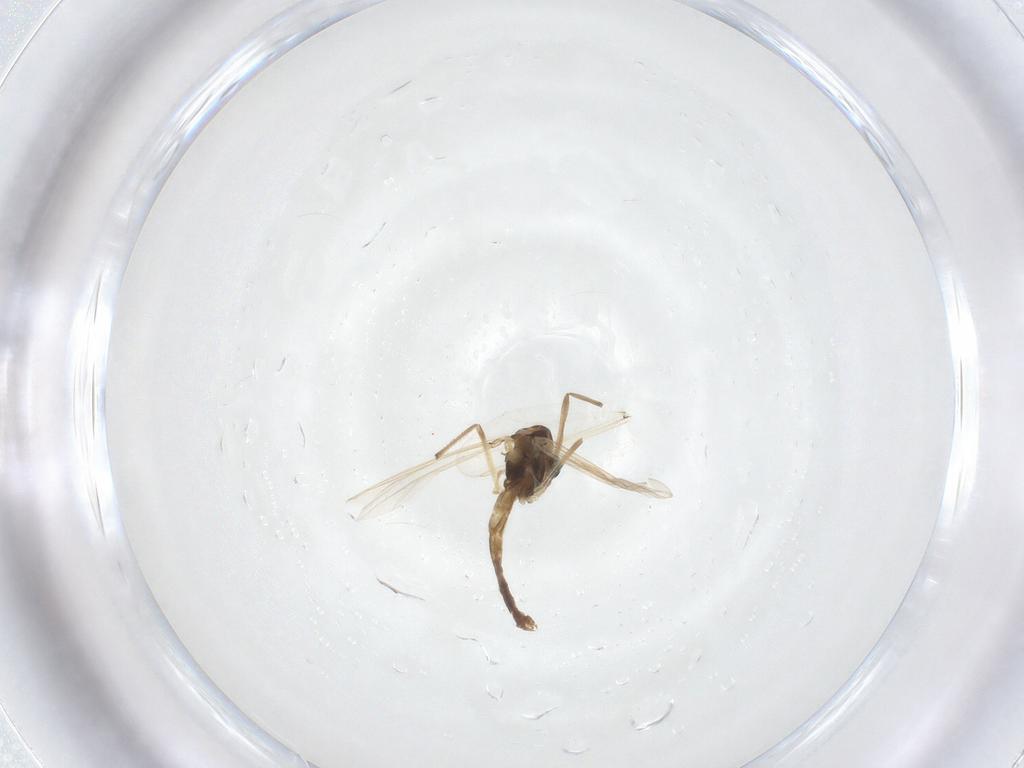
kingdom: Animalia
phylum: Arthropoda
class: Insecta
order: Diptera
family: Chironomidae
